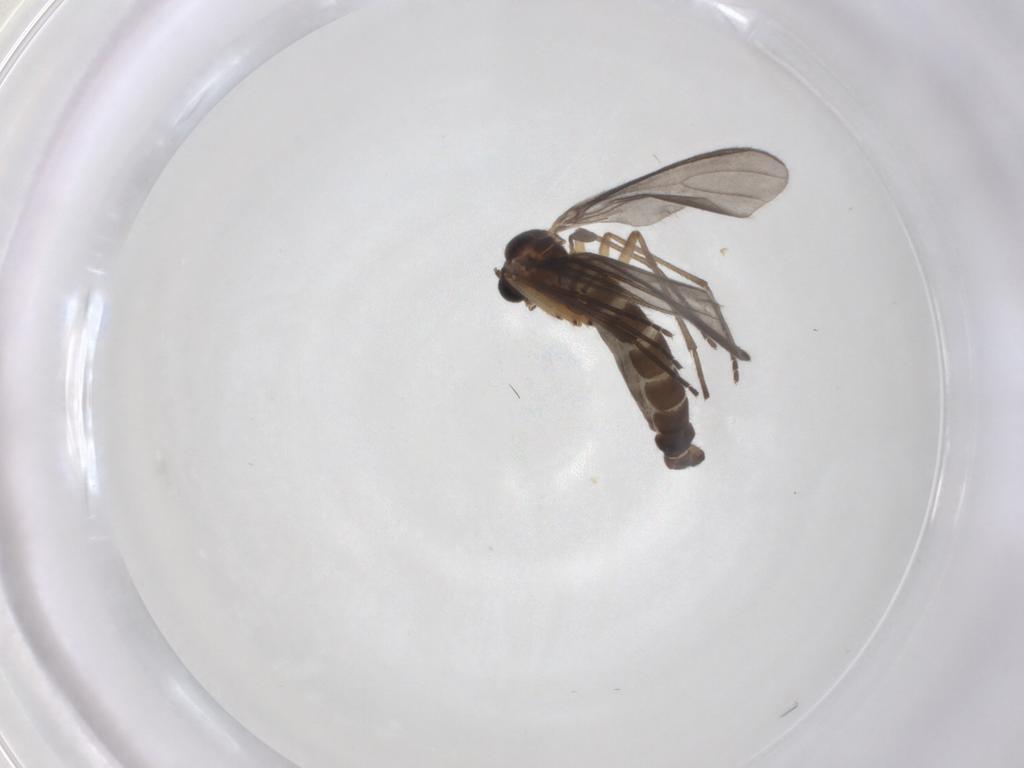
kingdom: Animalia
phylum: Arthropoda
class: Insecta
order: Diptera
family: Sciaridae
